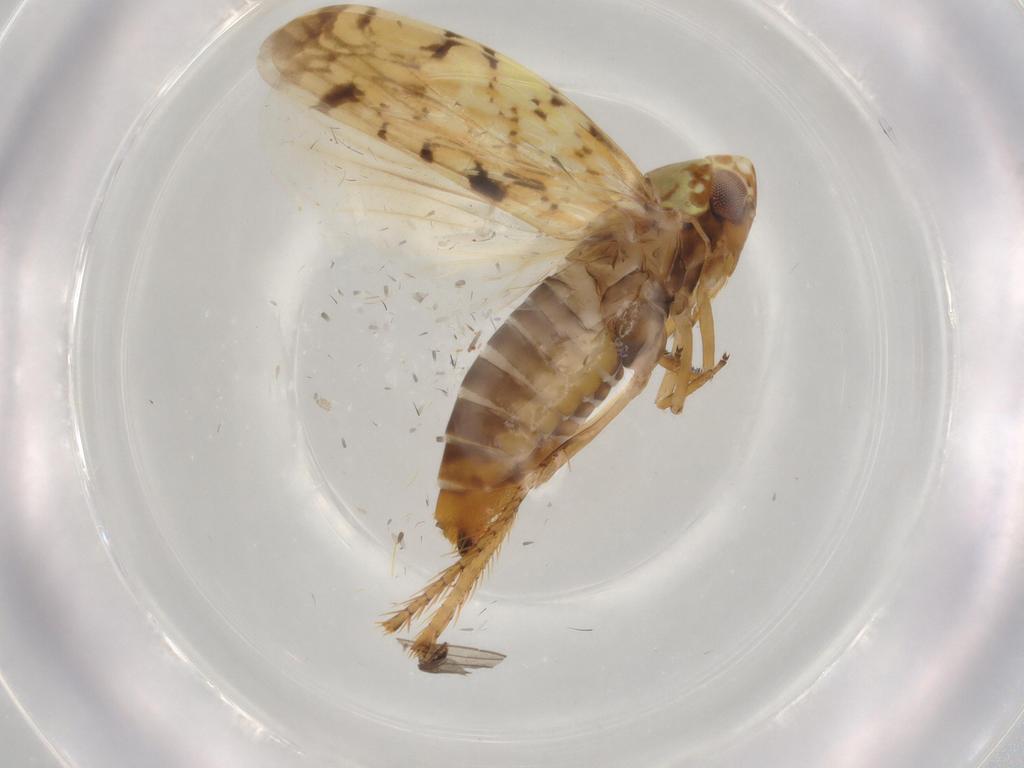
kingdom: Animalia
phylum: Arthropoda
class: Insecta
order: Hemiptera
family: Cicadellidae
